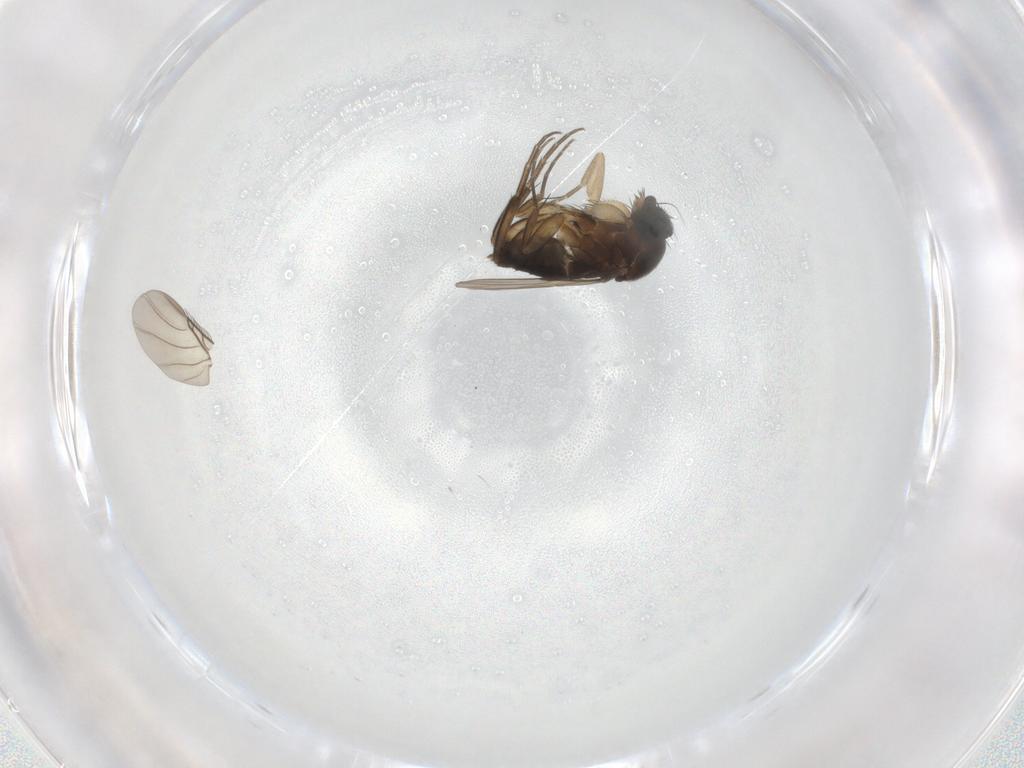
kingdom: Animalia
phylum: Arthropoda
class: Insecta
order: Diptera
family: Phoridae
